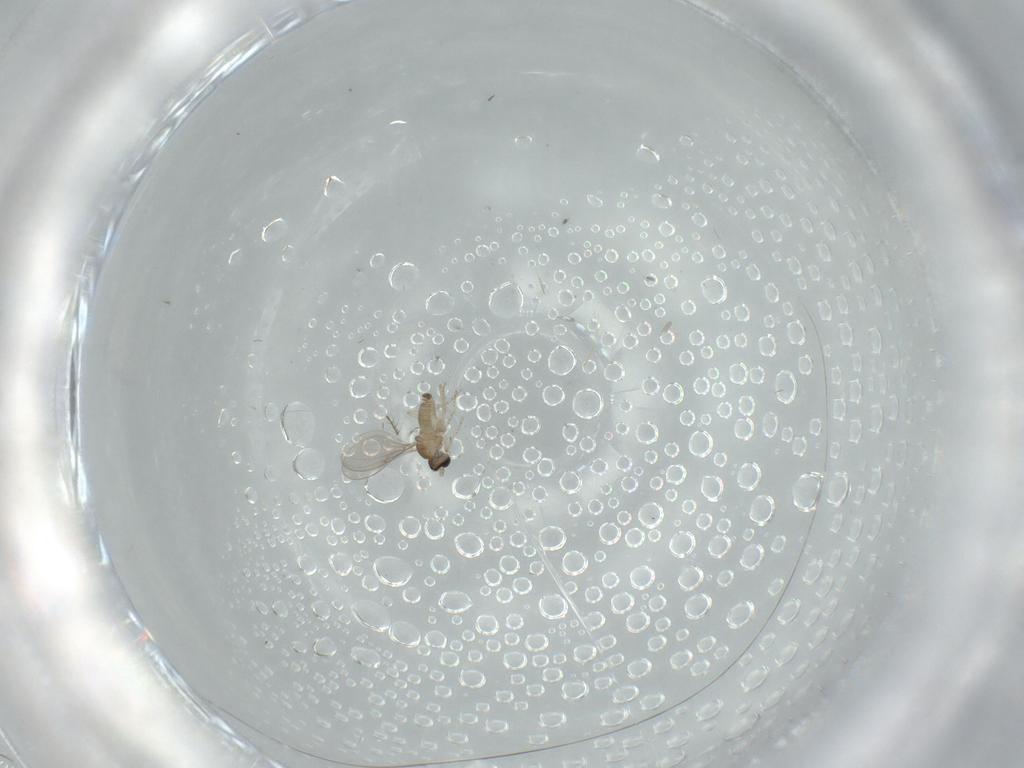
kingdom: Animalia
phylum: Arthropoda
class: Insecta
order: Diptera
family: Cecidomyiidae
